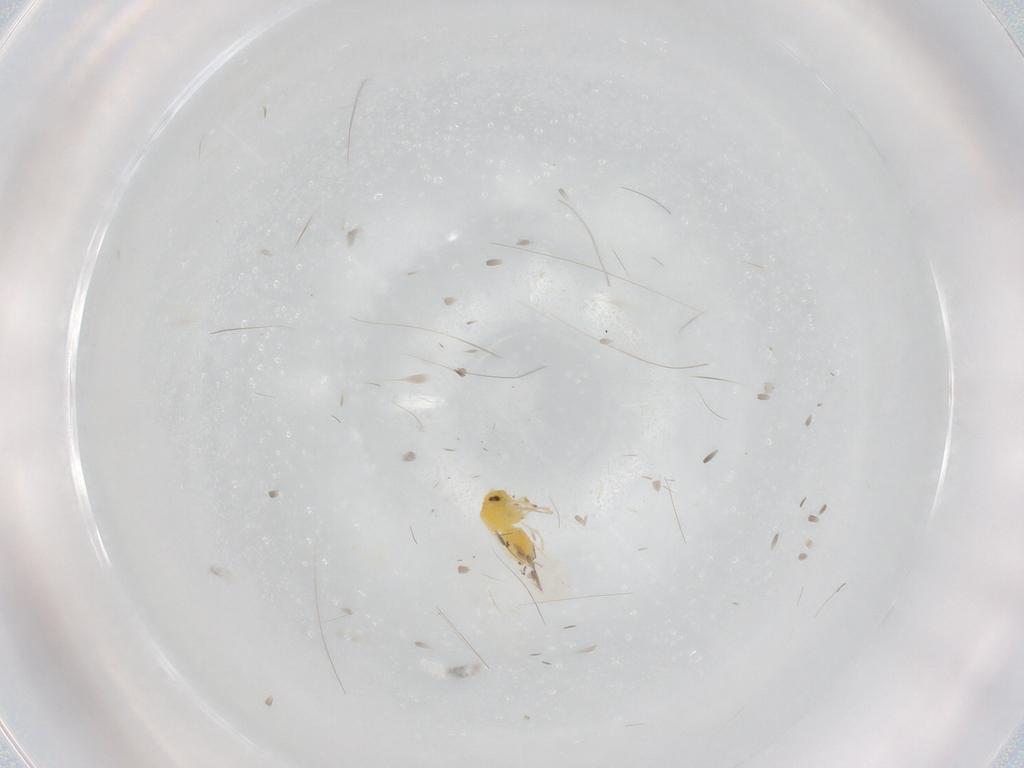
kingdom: Animalia
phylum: Arthropoda
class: Insecta
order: Hemiptera
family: Aleyrodidae
